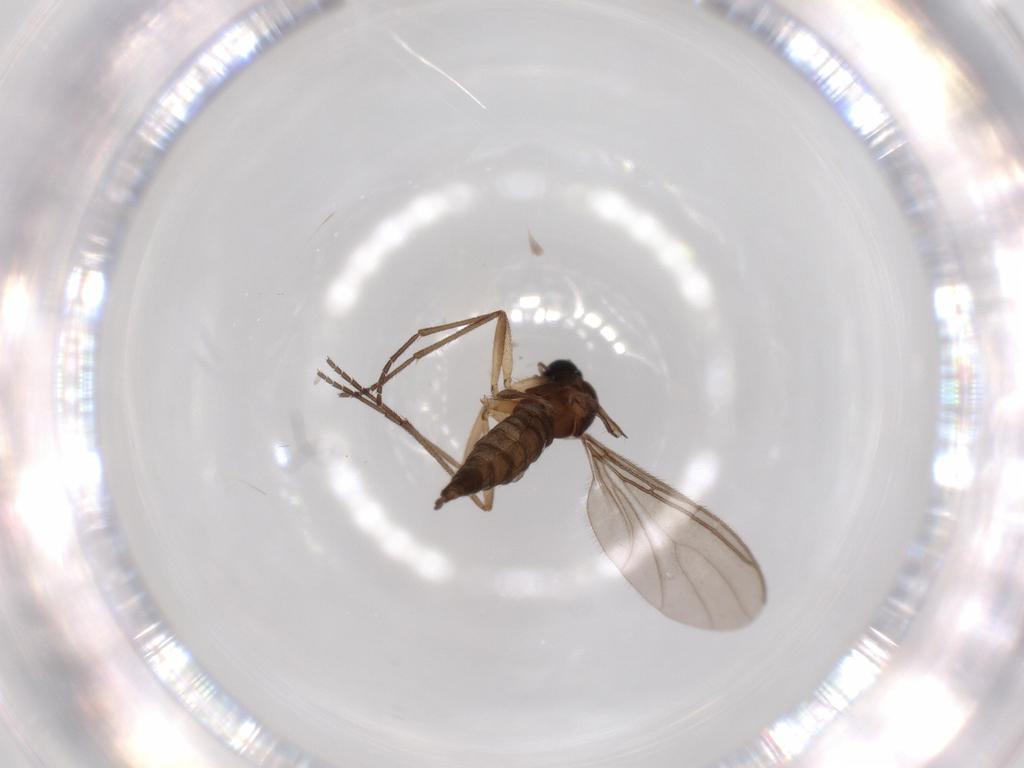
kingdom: Animalia
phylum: Arthropoda
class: Insecta
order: Diptera
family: Sciaridae
